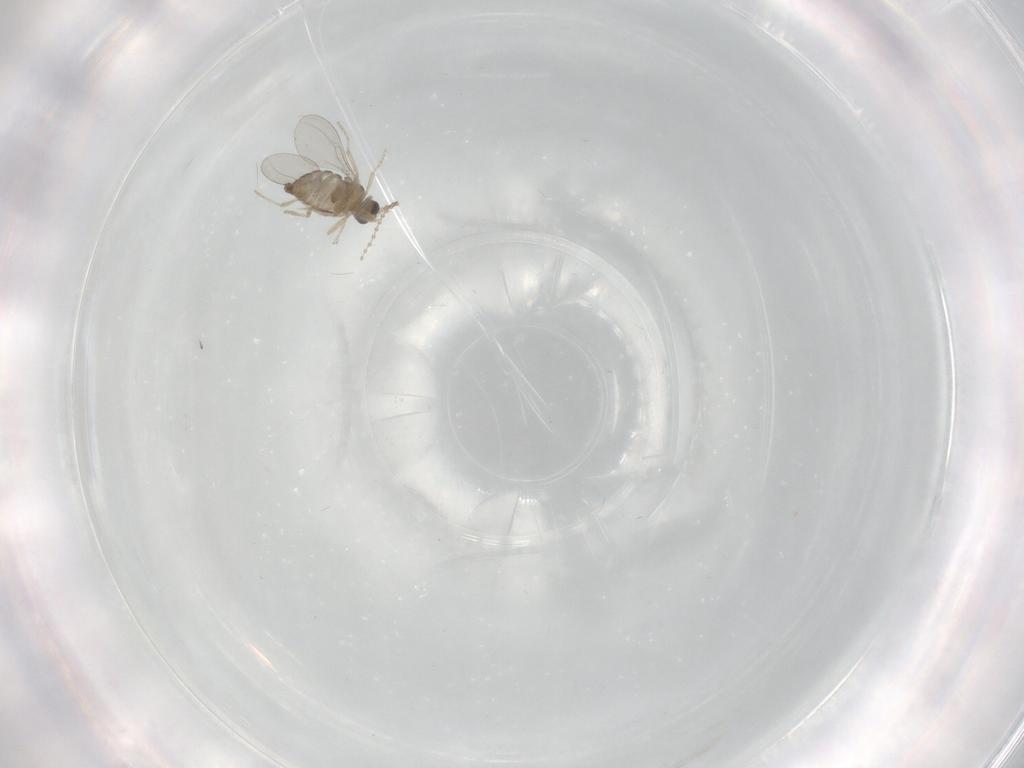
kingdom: Animalia
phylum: Arthropoda
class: Insecta
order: Diptera
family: Cecidomyiidae
